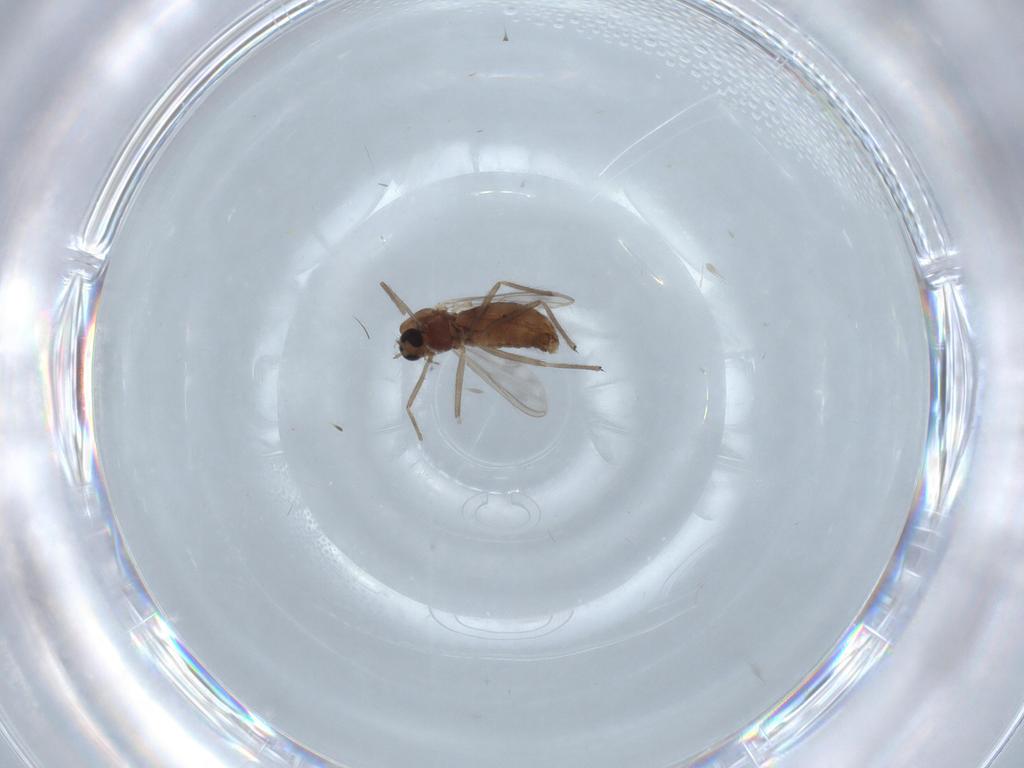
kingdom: Animalia
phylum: Arthropoda
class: Insecta
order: Diptera
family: Chironomidae
